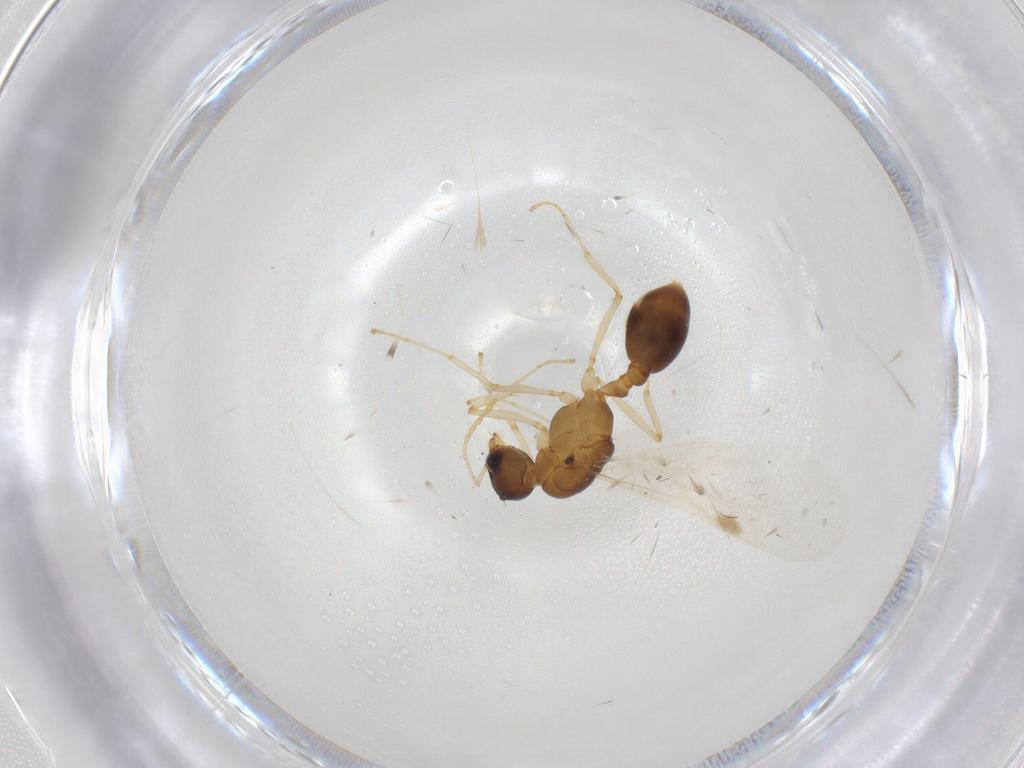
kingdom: Animalia
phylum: Arthropoda
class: Insecta
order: Hymenoptera
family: Formicidae
